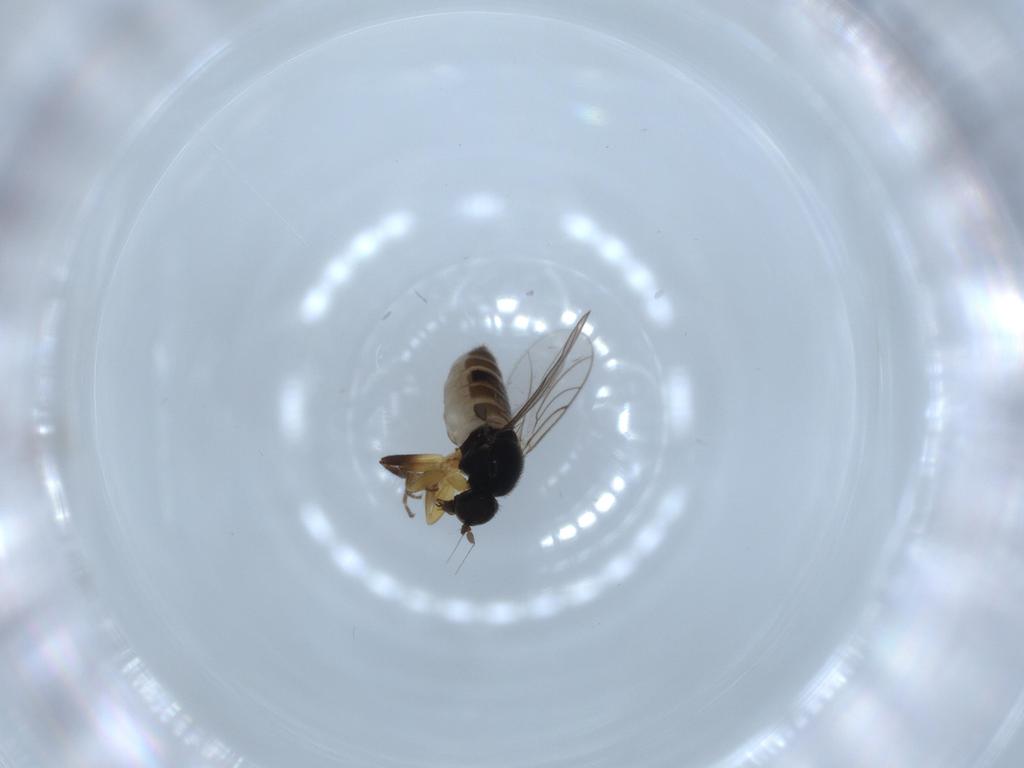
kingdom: Animalia
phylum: Arthropoda
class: Insecta
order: Diptera
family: Hybotidae
